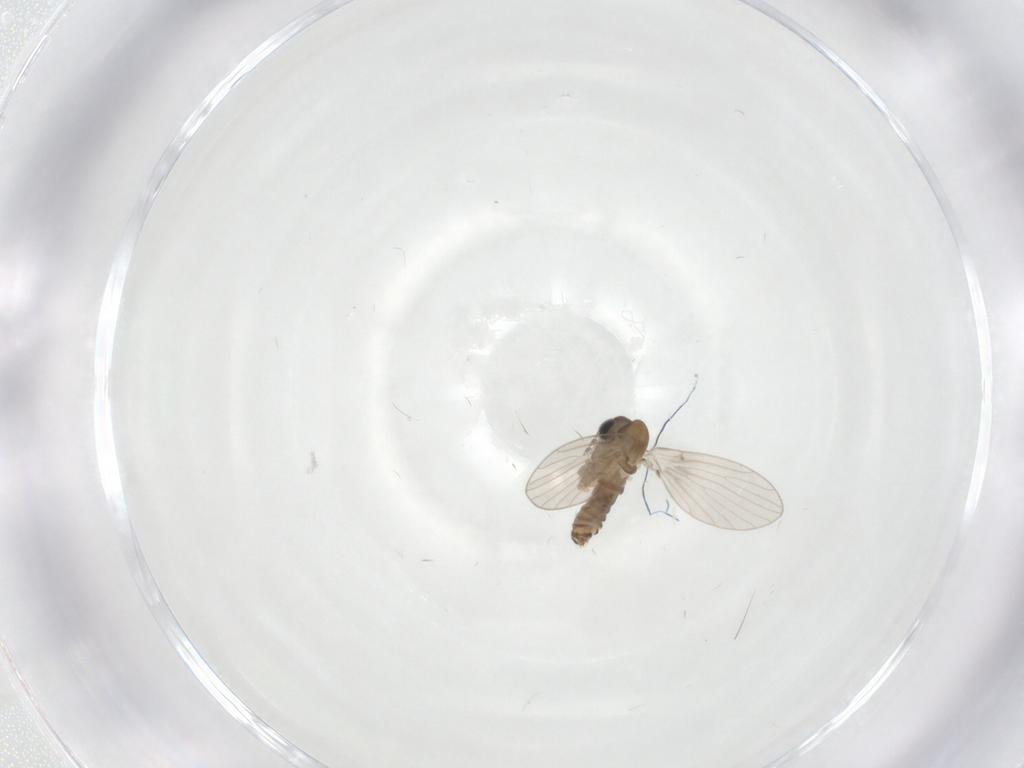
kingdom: Animalia
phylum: Arthropoda
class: Insecta
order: Diptera
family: Psychodidae
